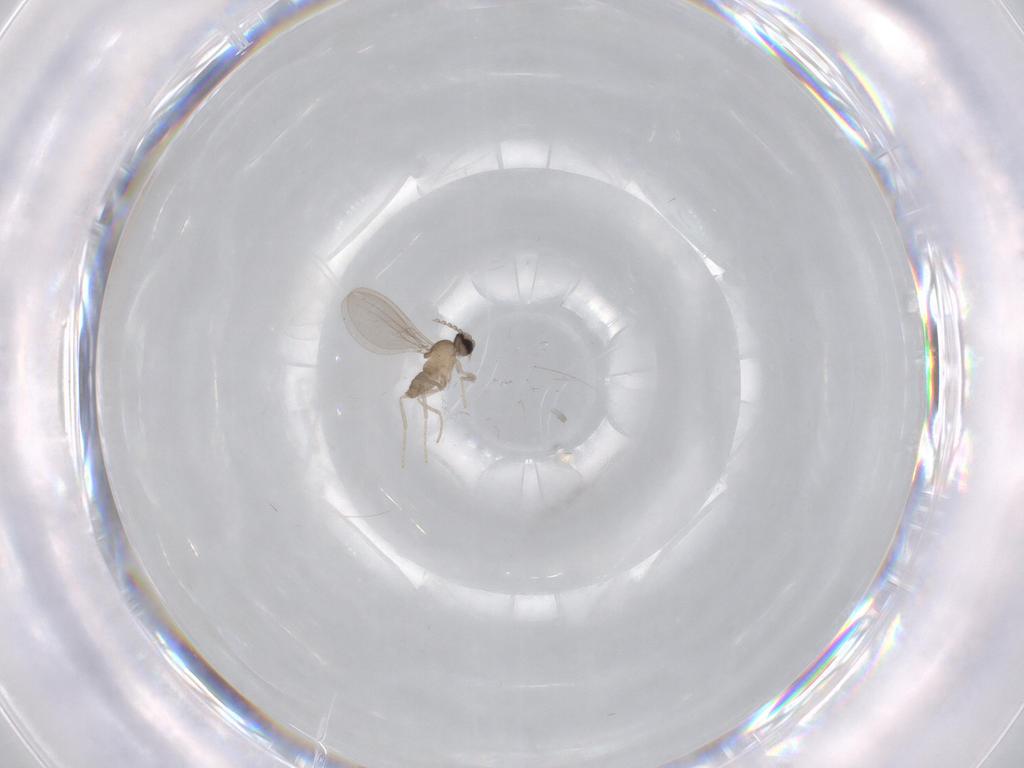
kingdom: Animalia
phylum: Arthropoda
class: Insecta
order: Diptera
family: Cecidomyiidae
